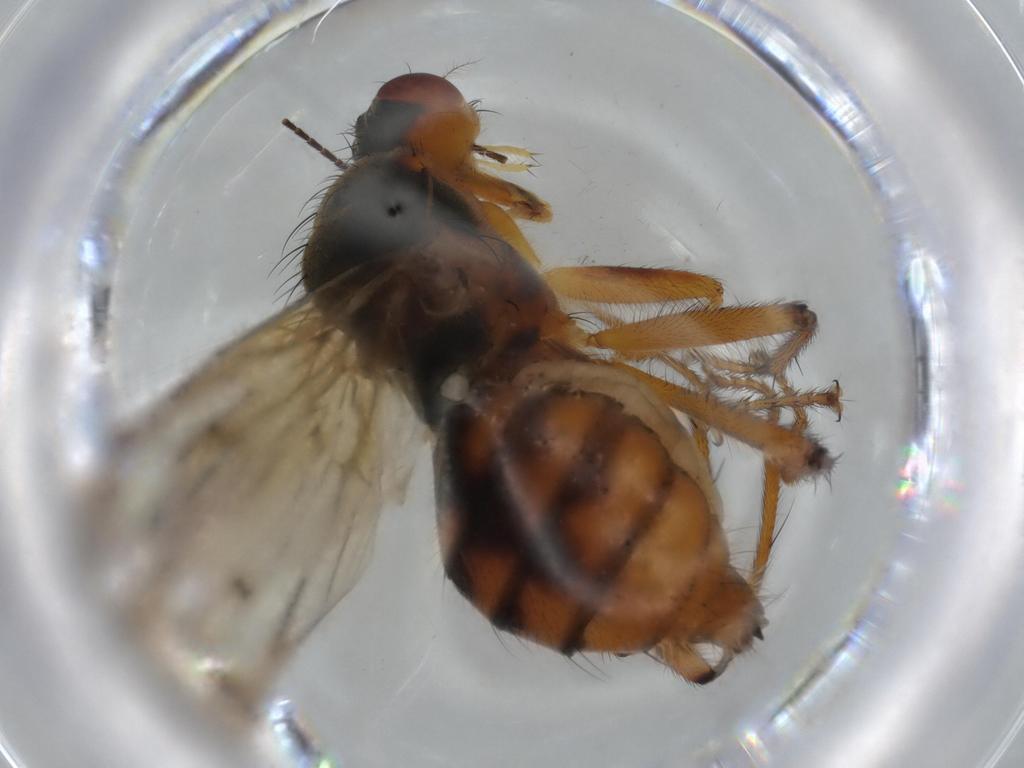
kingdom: Animalia
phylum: Arthropoda
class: Insecta
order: Diptera
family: Scathophagidae
